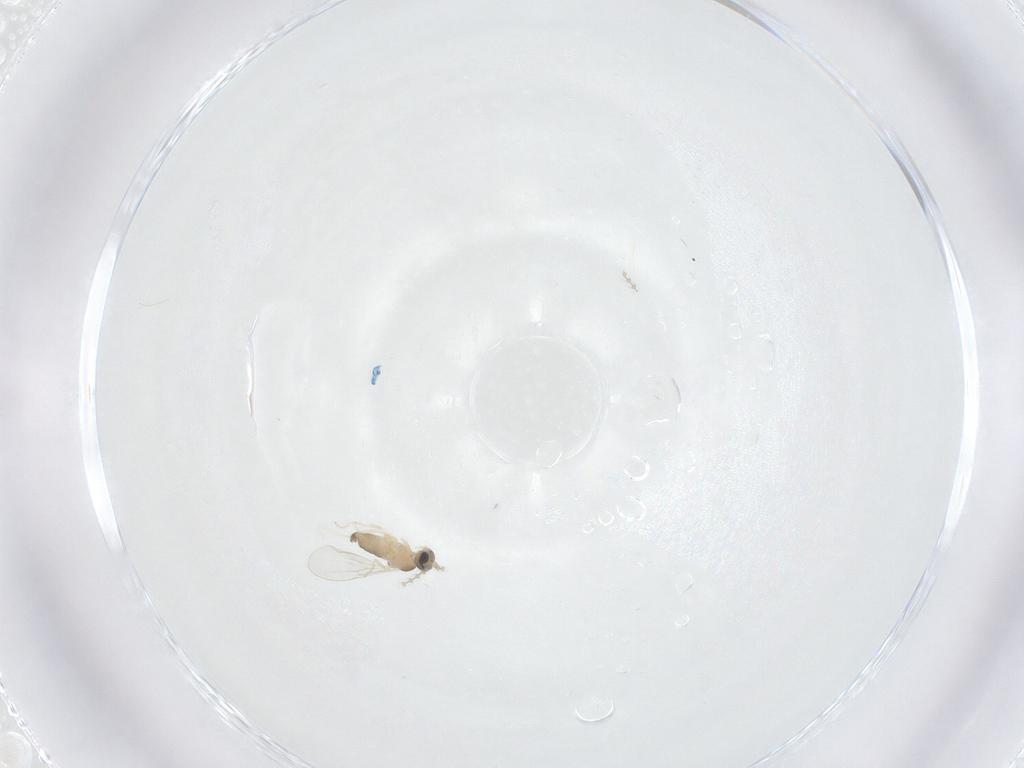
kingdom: Animalia
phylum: Arthropoda
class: Insecta
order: Diptera
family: Cecidomyiidae
